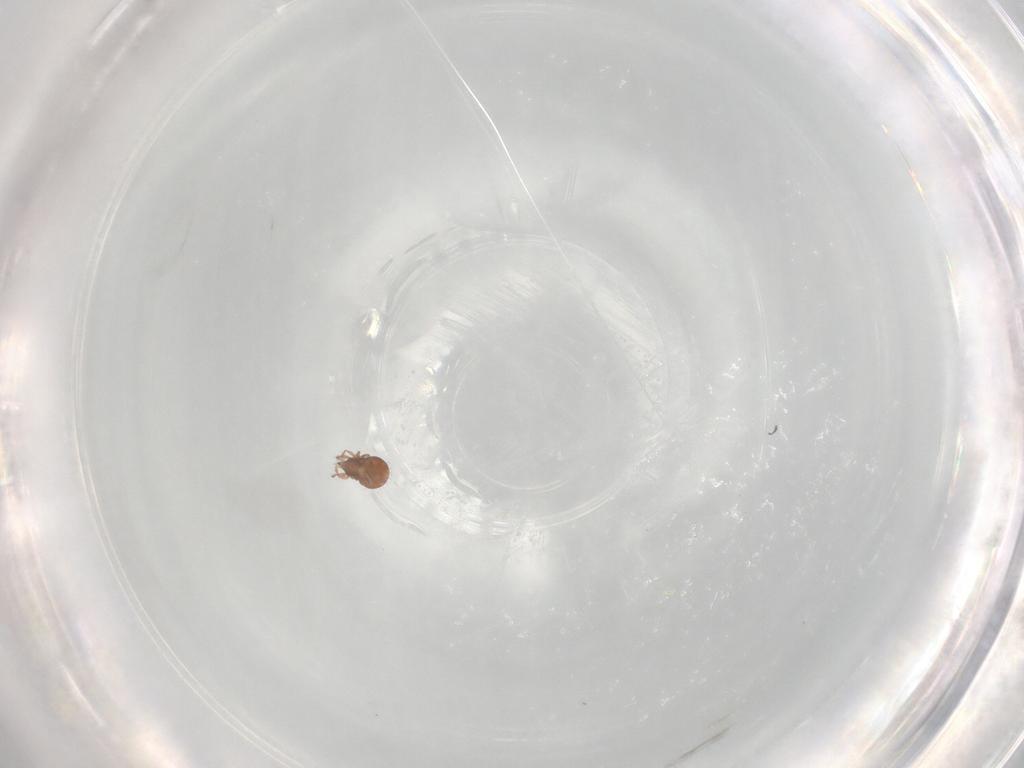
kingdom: Animalia
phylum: Arthropoda
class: Arachnida
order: Sarcoptiformes
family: Oribatulidae
